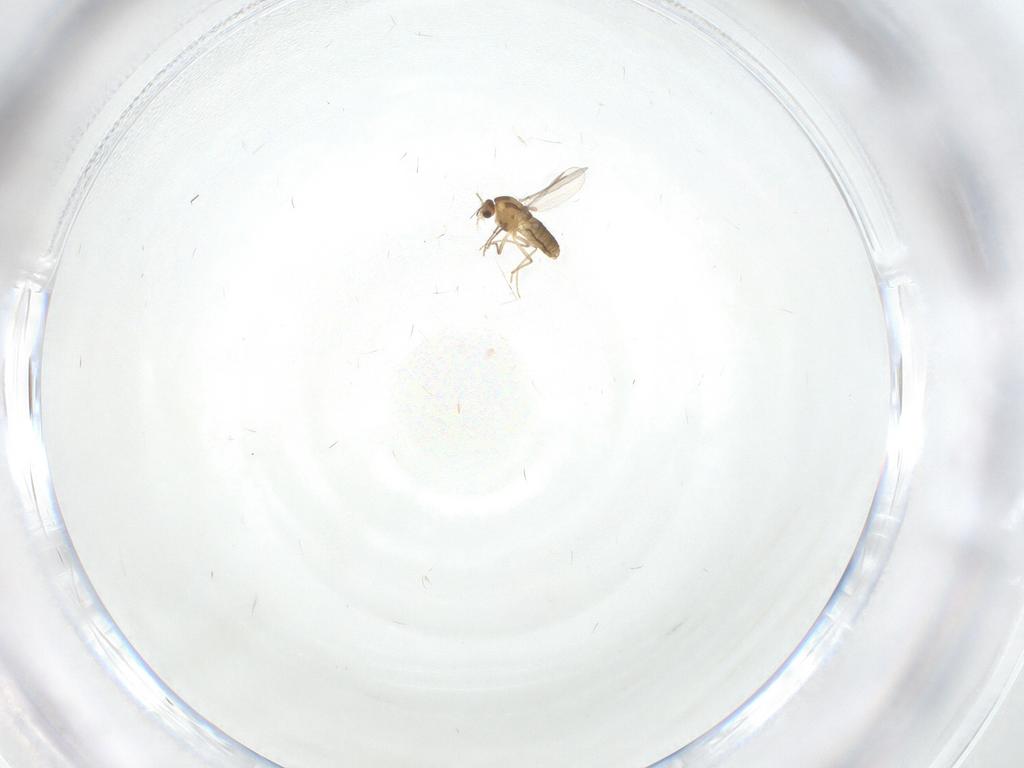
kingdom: Animalia
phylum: Arthropoda
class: Insecta
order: Diptera
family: Chironomidae
